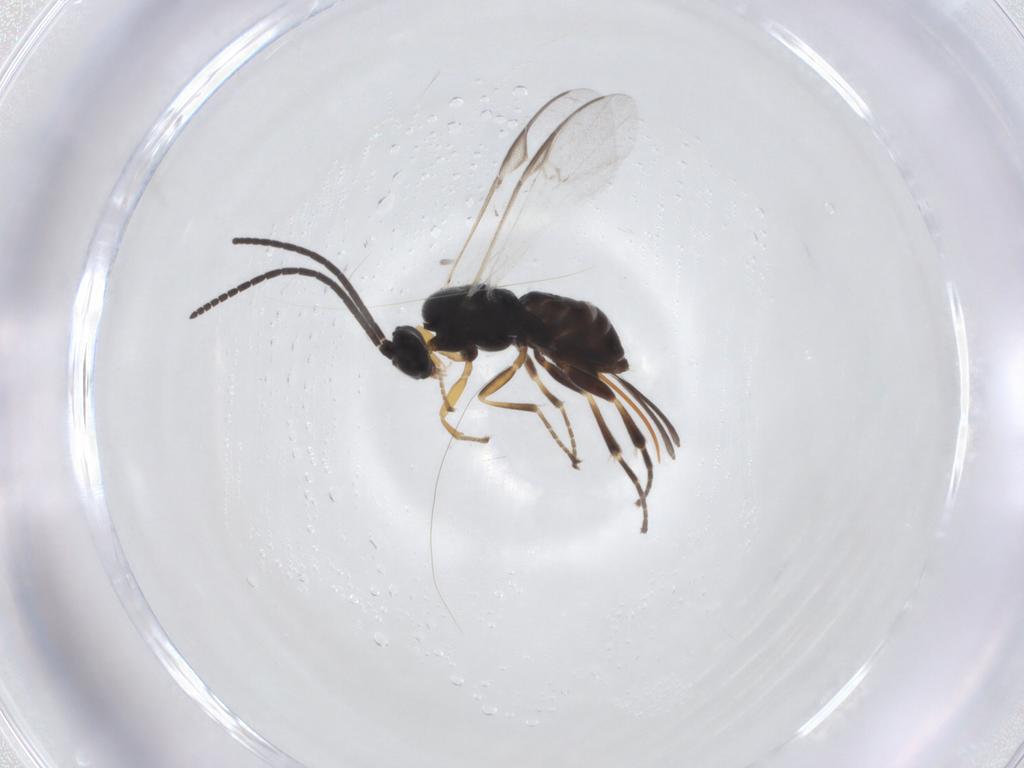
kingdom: Animalia
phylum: Arthropoda
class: Insecta
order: Hymenoptera
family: Braconidae
